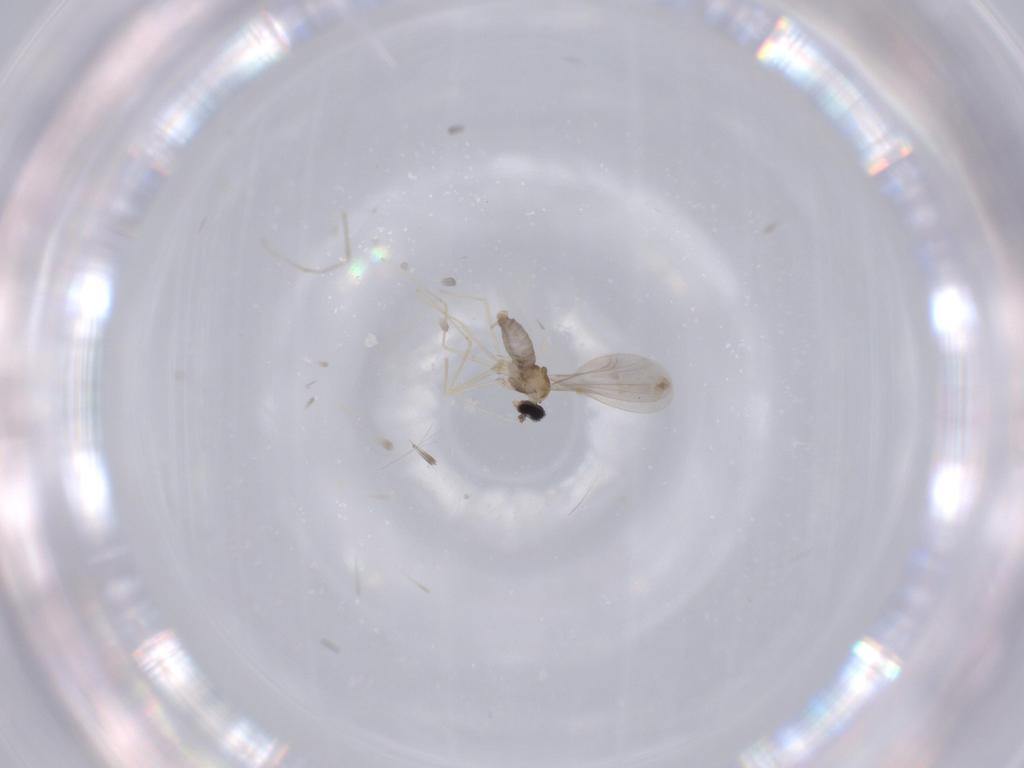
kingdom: Animalia
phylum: Arthropoda
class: Insecta
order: Diptera
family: Cecidomyiidae
